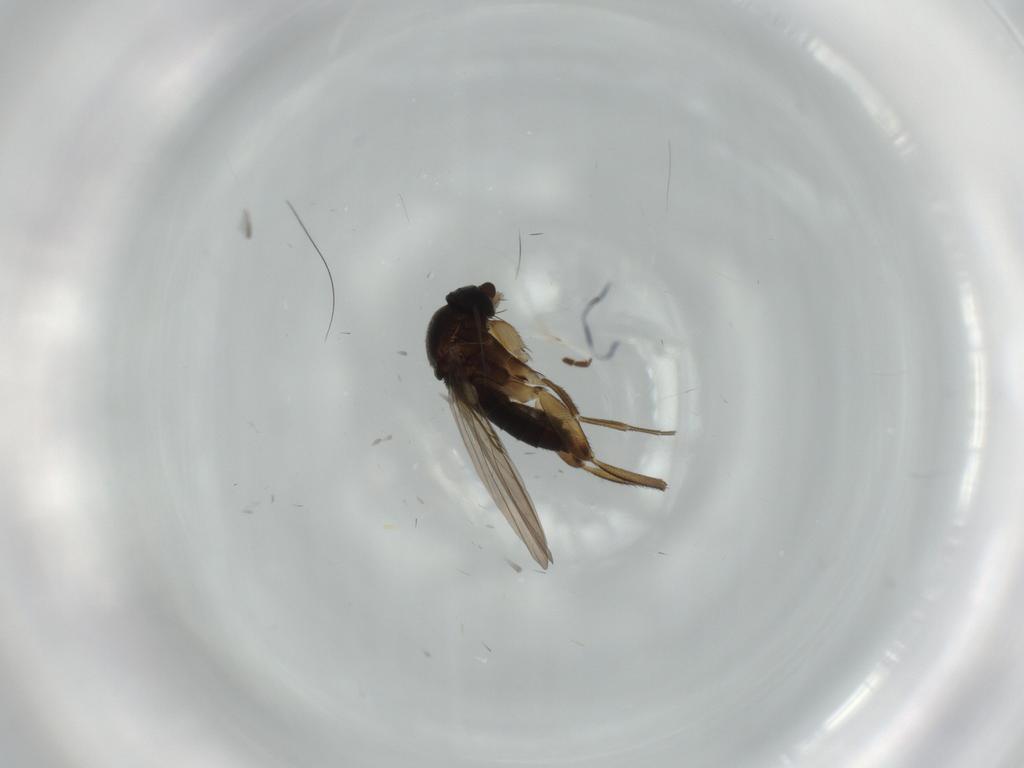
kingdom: Animalia
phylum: Arthropoda
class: Insecta
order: Diptera
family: Phoridae
